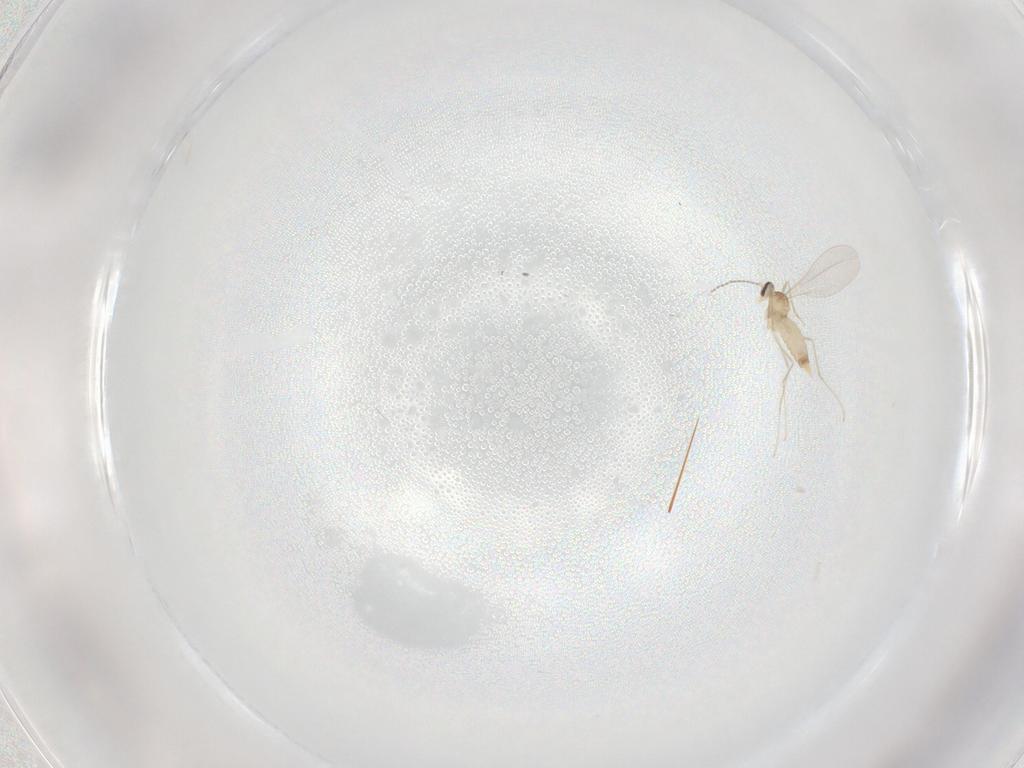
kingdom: Animalia
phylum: Arthropoda
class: Insecta
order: Diptera
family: Cecidomyiidae
